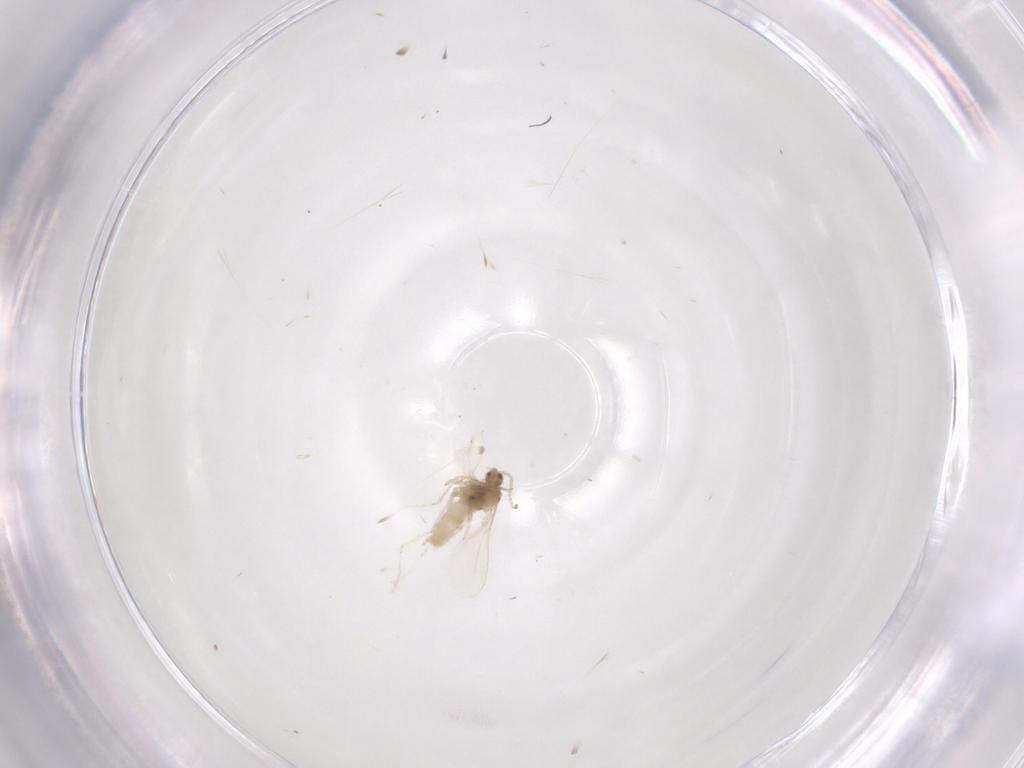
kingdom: Animalia
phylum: Arthropoda
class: Insecta
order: Diptera
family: Cecidomyiidae
